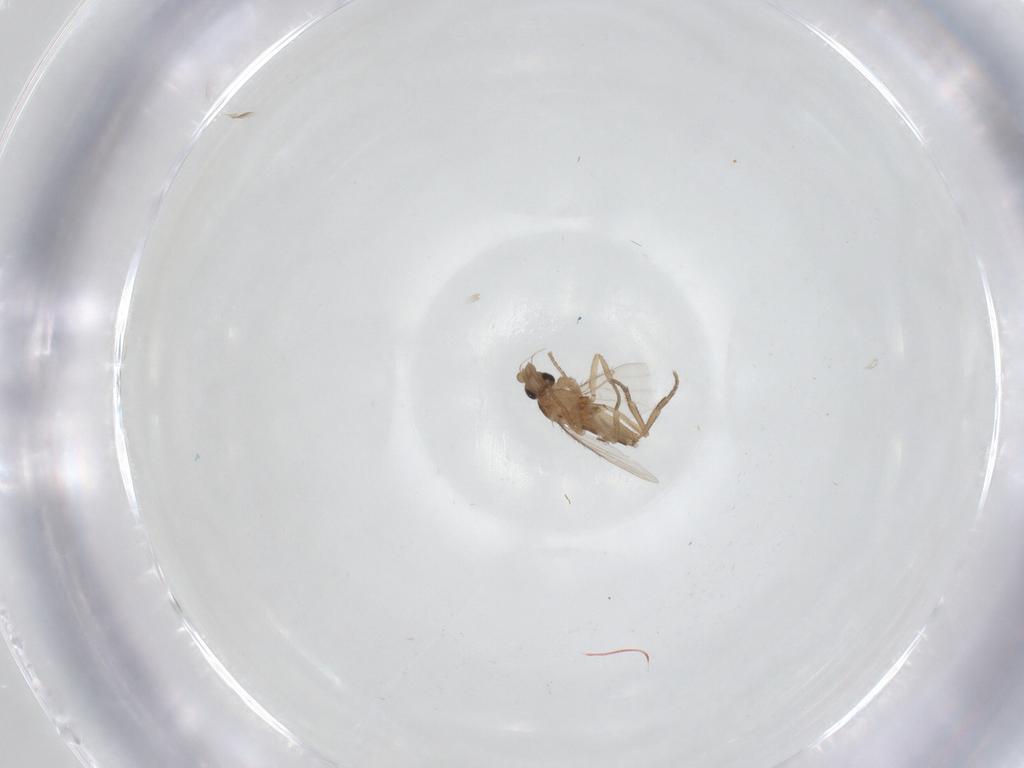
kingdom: Animalia
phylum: Arthropoda
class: Insecta
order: Diptera
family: Phoridae
